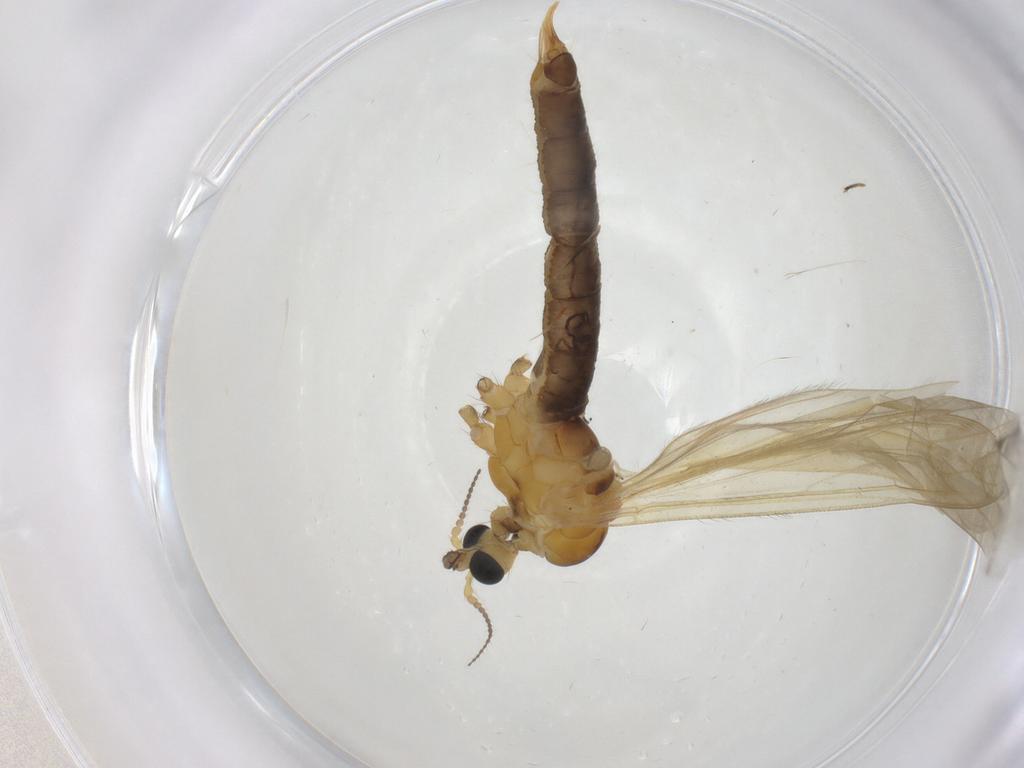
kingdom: Animalia
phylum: Arthropoda
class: Insecta
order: Diptera
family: Phoridae
